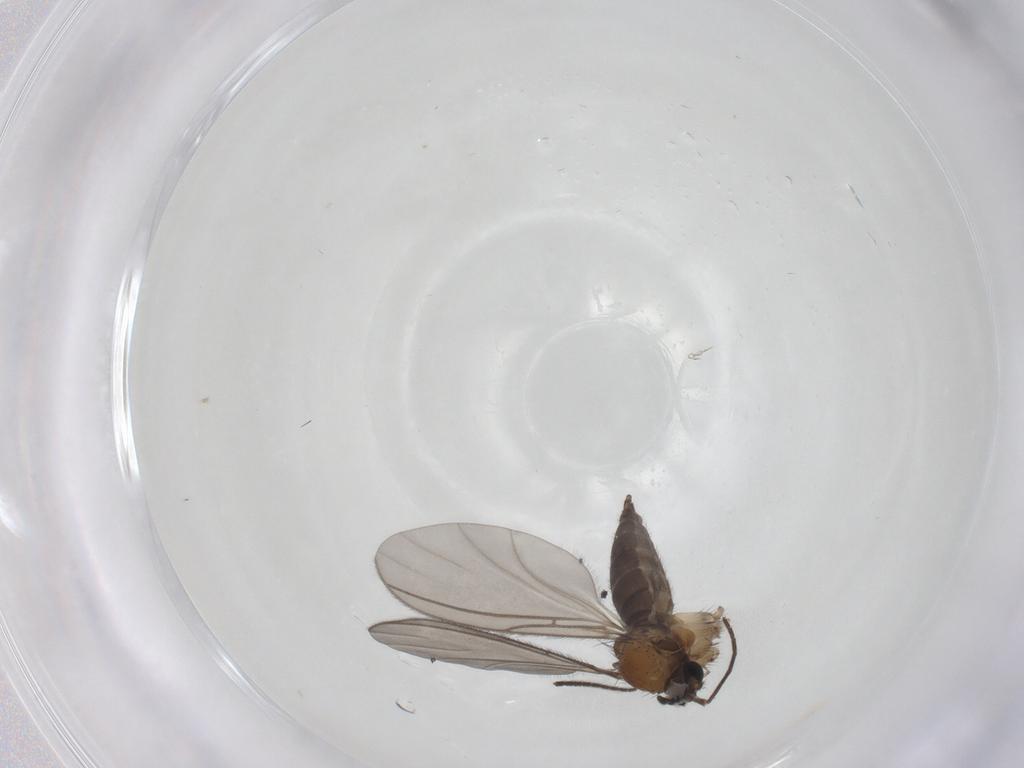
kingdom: Animalia
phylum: Arthropoda
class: Insecta
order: Diptera
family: Sciaridae
